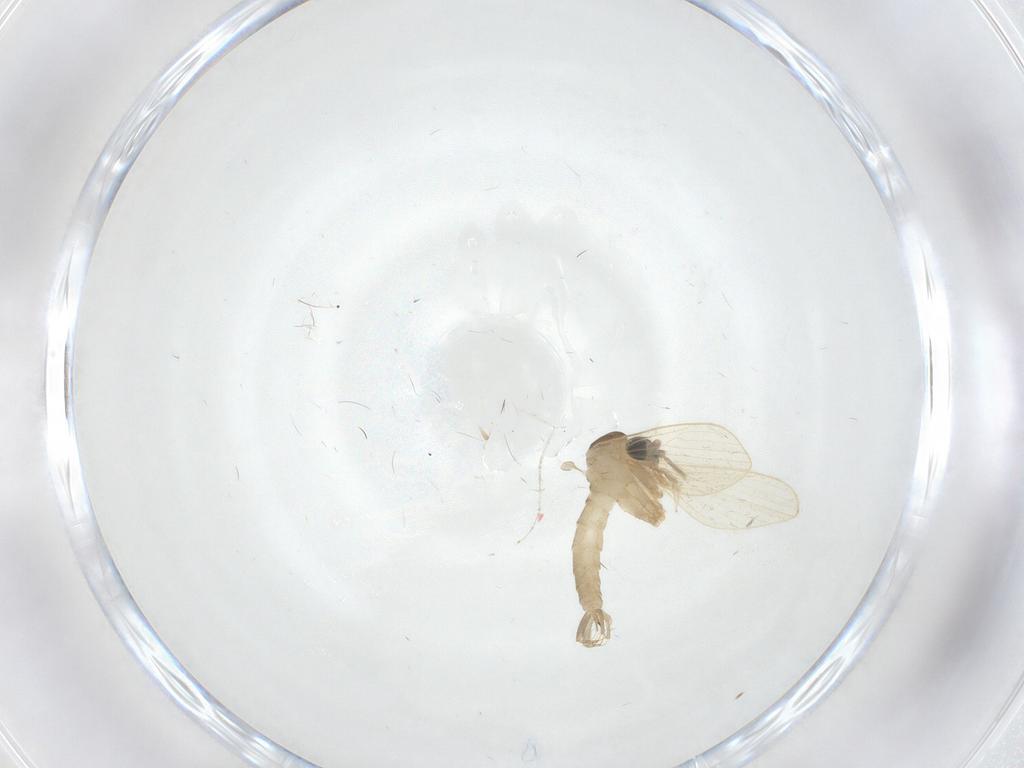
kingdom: Animalia
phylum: Arthropoda
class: Insecta
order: Diptera
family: Psychodidae
